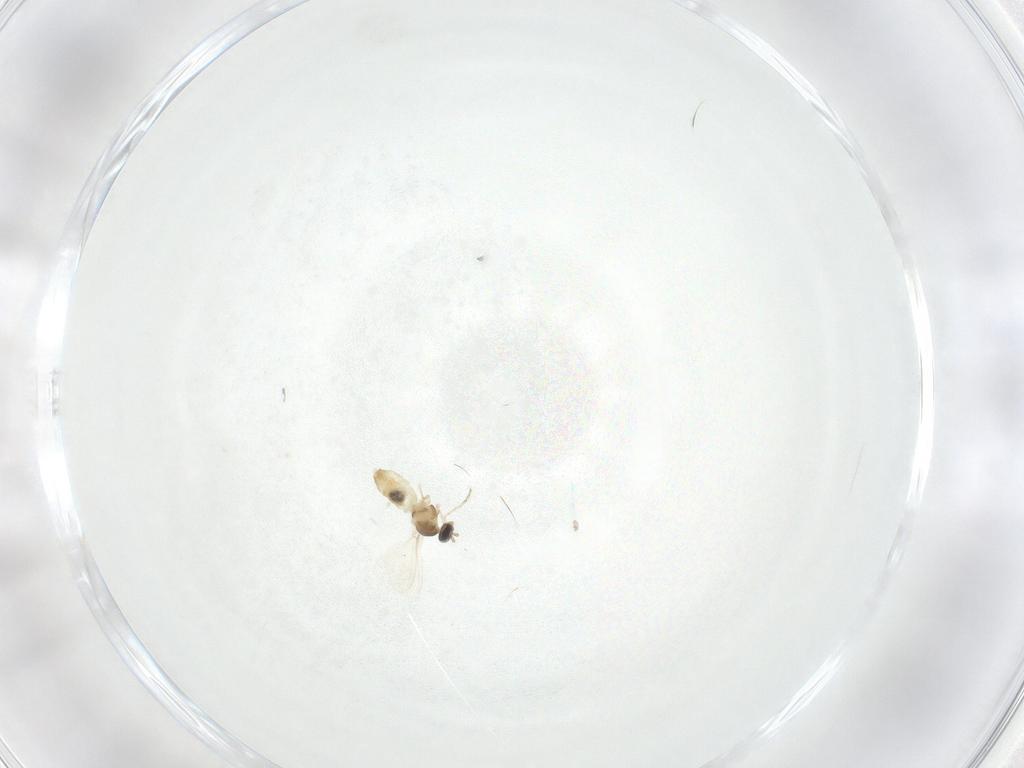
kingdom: Animalia
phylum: Arthropoda
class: Insecta
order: Diptera
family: Cecidomyiidae
